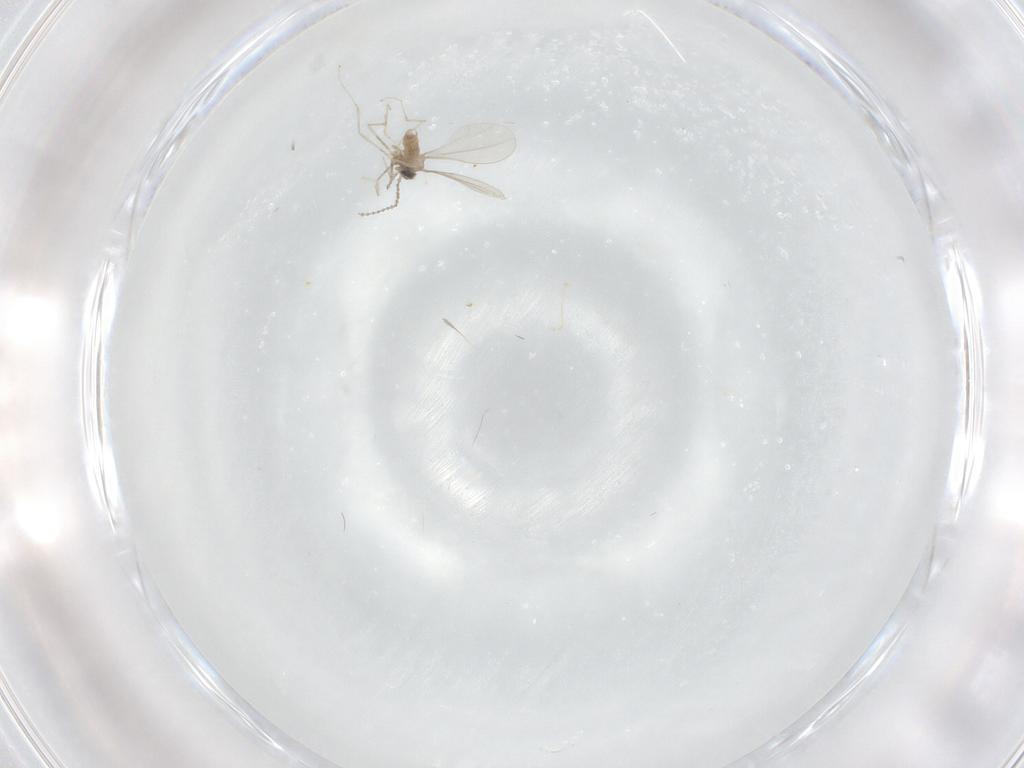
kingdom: Animalia
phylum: Arthropoda
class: Insecta
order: Diptera
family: Cecidomyiidae
